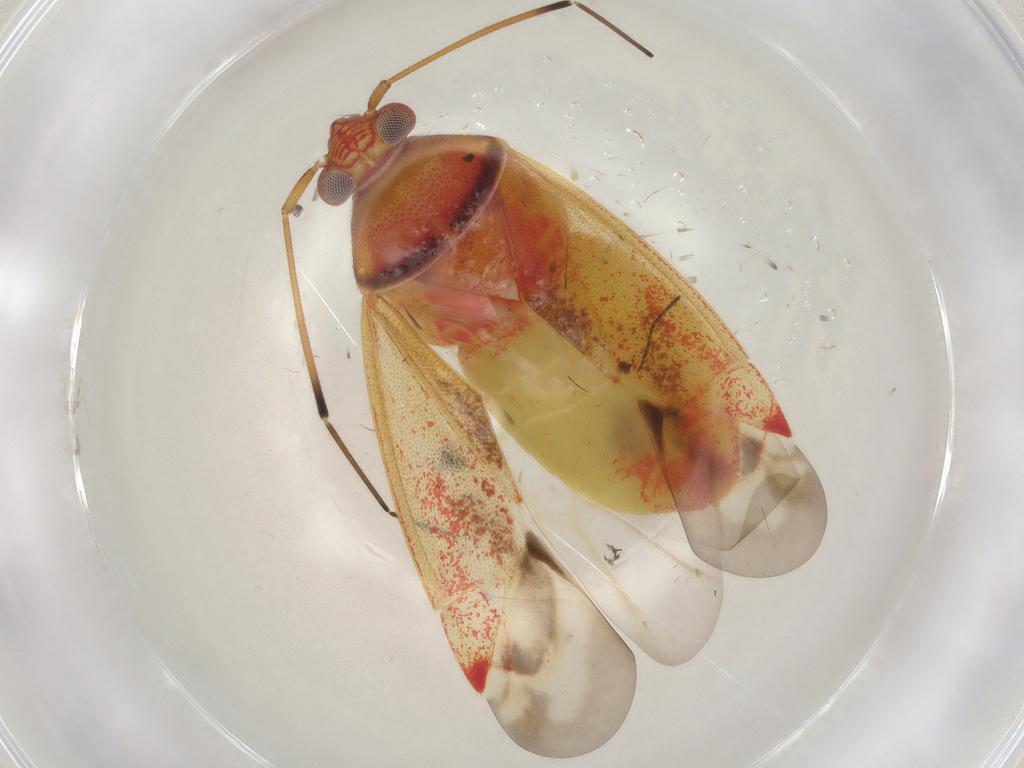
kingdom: Animalia
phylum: Arthropoda
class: Insecta
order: Hemiptera
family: Miridae
